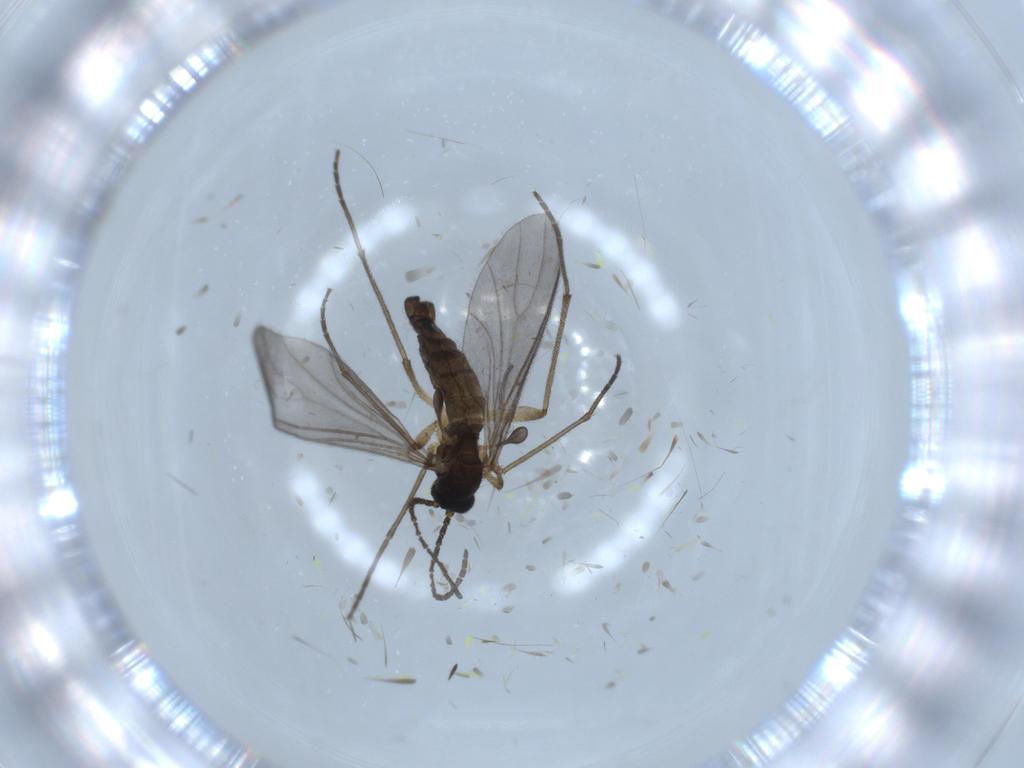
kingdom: Animalia
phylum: Arthropoda
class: Insecta
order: Diptera
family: Sciaridae
